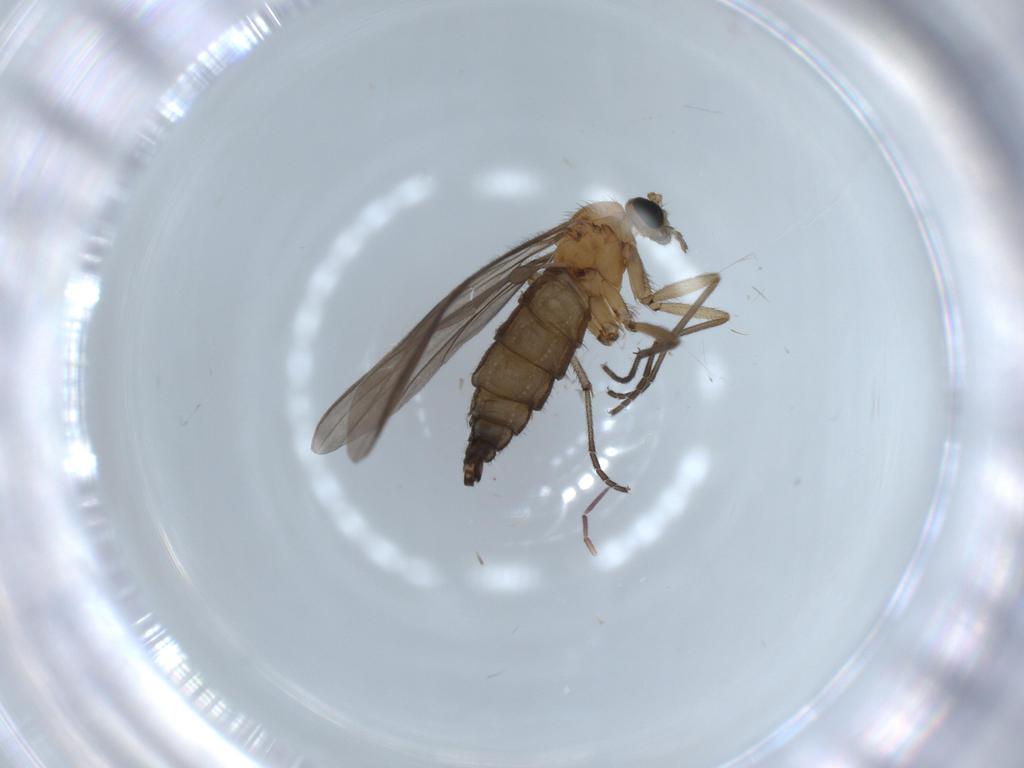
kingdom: Animalia
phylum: Arthropoda
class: Insecta
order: Diptera
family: Sciaridae
